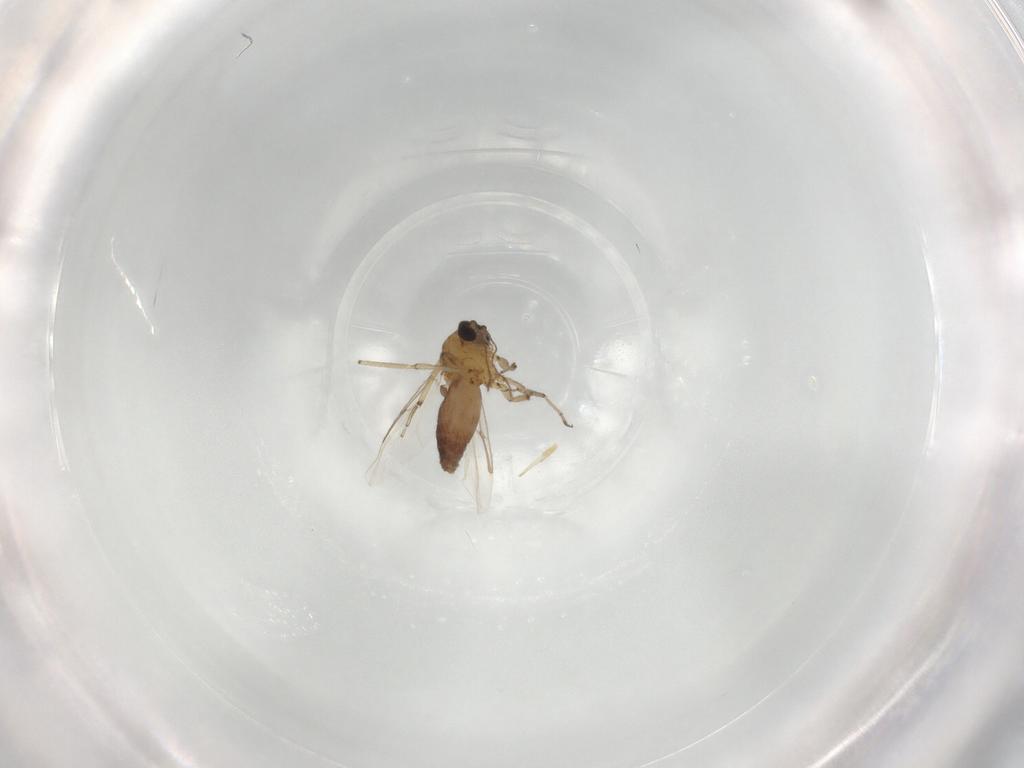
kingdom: Animalia
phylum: Arthropoda
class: Insecta
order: Diptera
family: Ceratopogonidae
